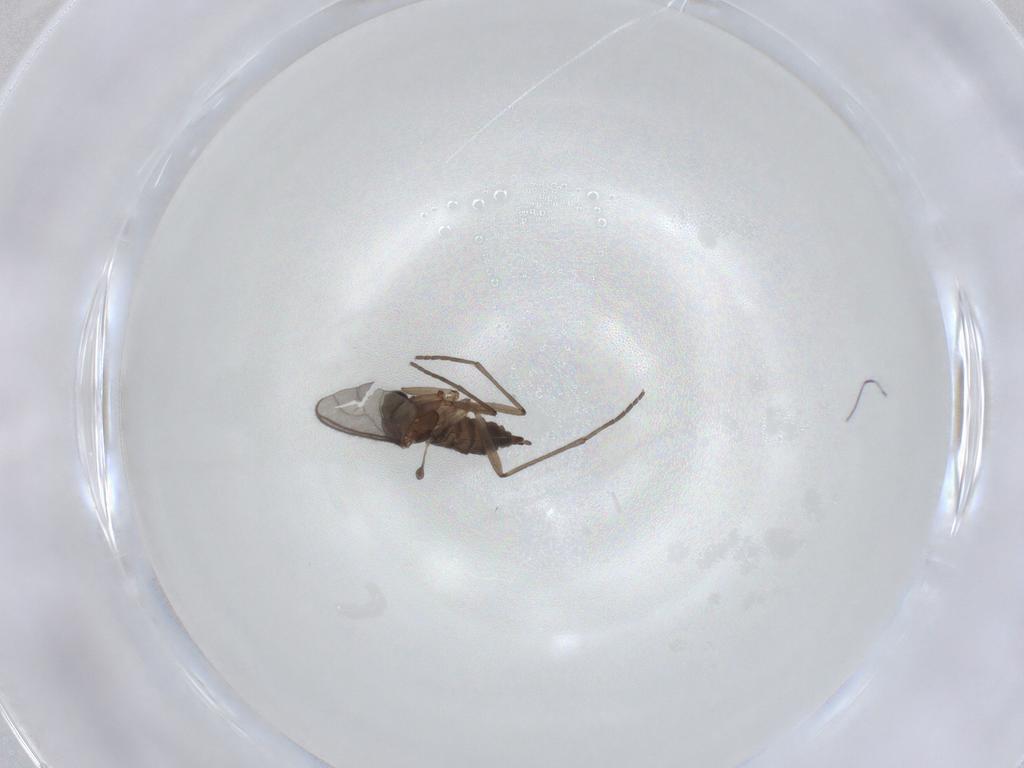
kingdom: Animalia
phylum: Arthropoda
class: Insecta
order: Diptera
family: Sciaridae
